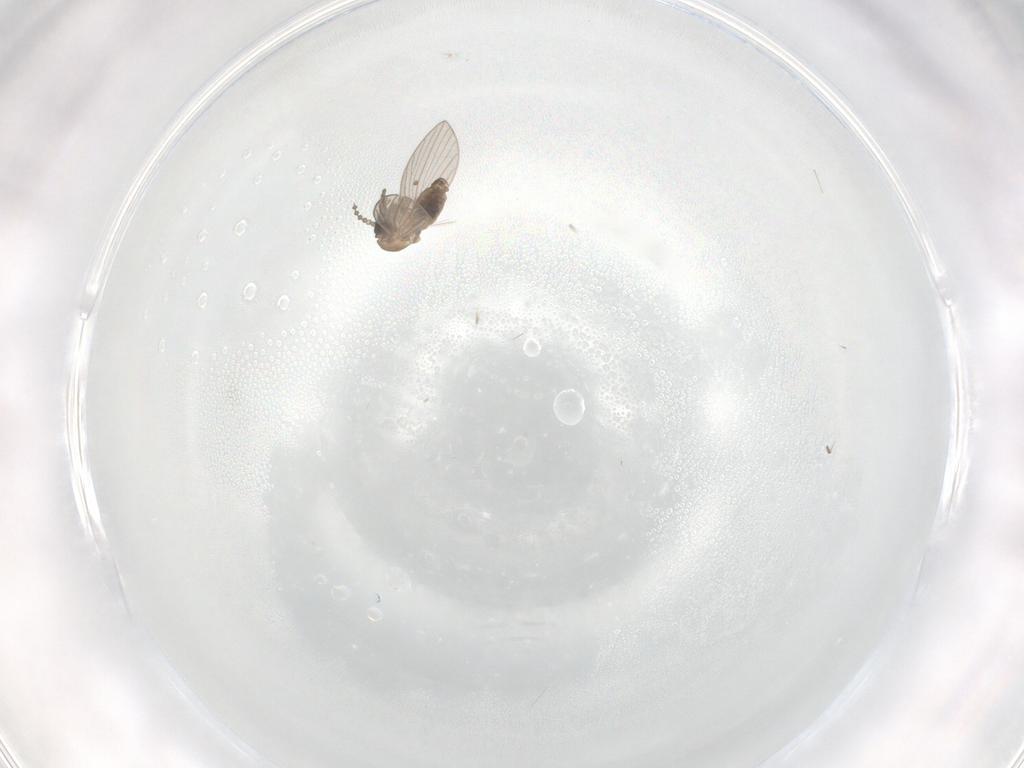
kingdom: Animalia
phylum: Arthropoda
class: Insecta
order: Diptera
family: Psychodidae
